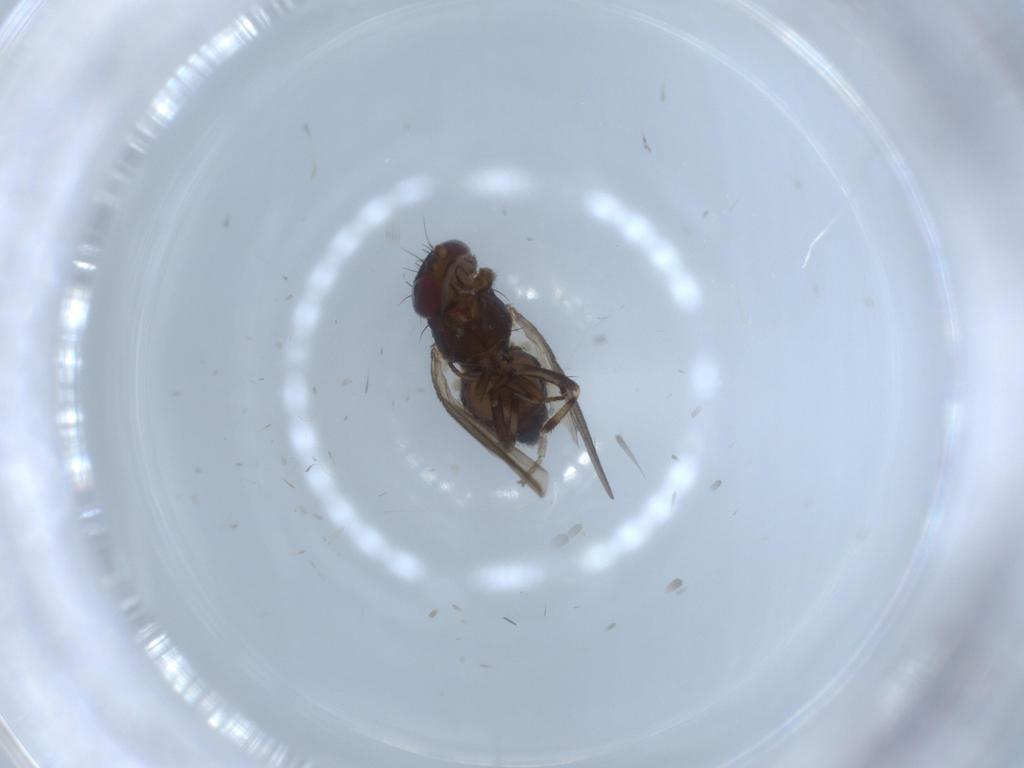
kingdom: Animalia
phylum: Arthropoda
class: Insecta
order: Diptera
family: Heleomyzidae
